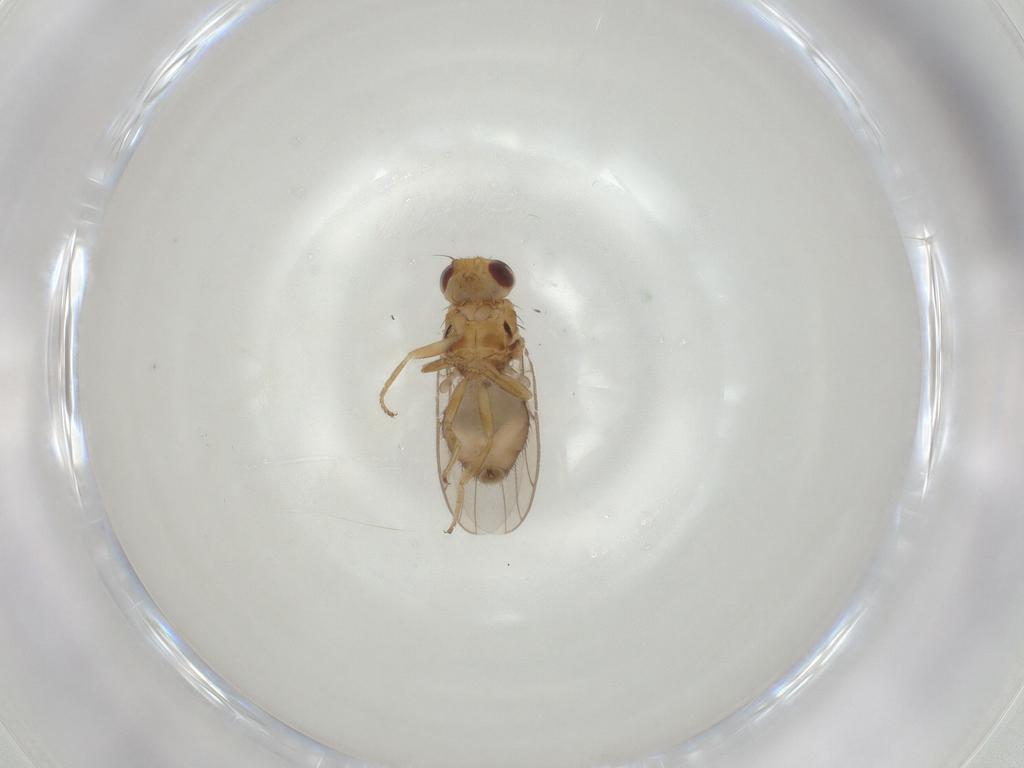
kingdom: Animalia
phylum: Arthropoda
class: Insecta
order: Diptera
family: Chloropidae
